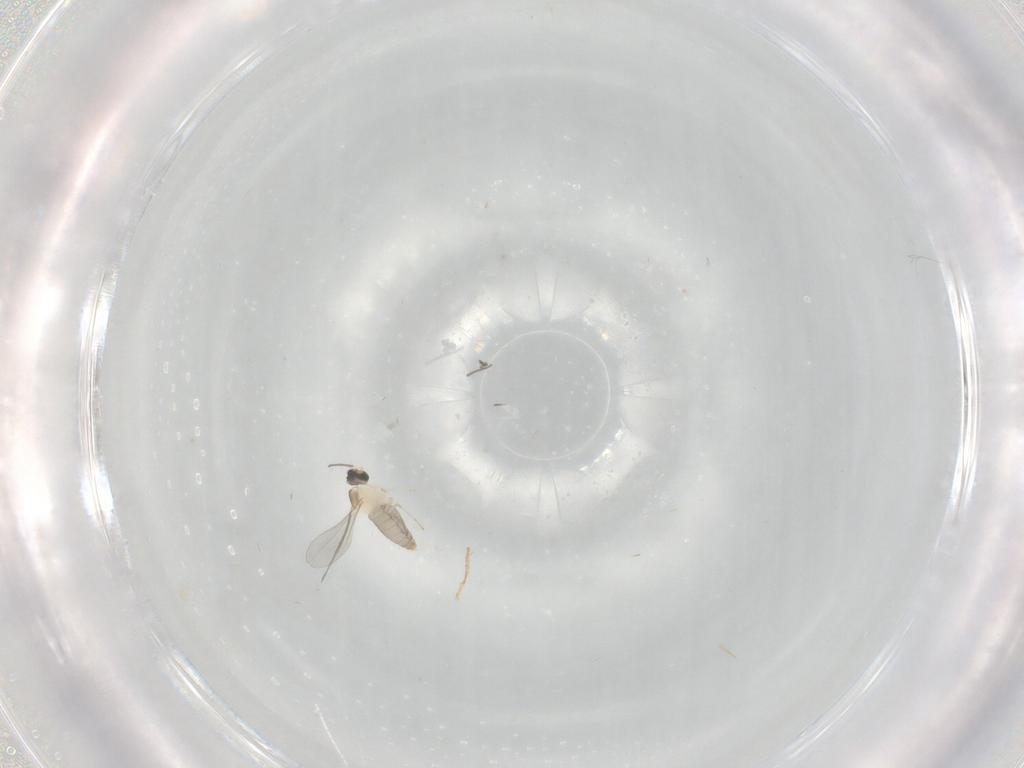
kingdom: Animalia
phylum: Arthropoda
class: Insecta
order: Diptera
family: Cecidomyiidae
